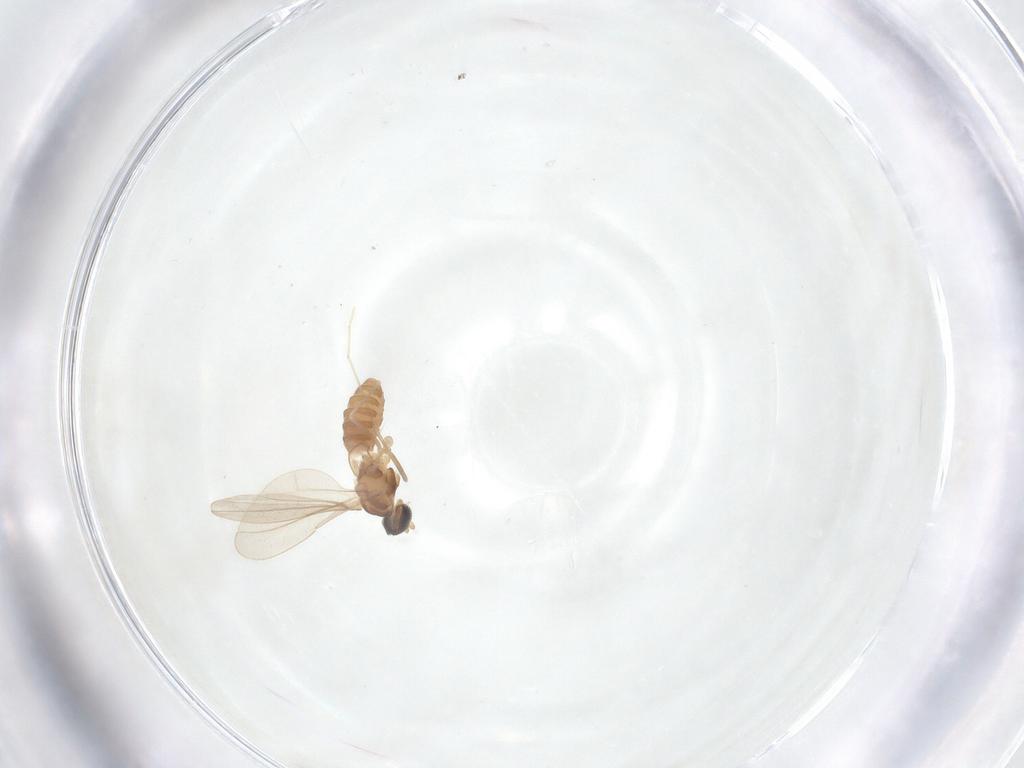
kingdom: Animalia
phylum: Arthropoda
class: Insecta
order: Diptera
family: Cecidomyiidae
